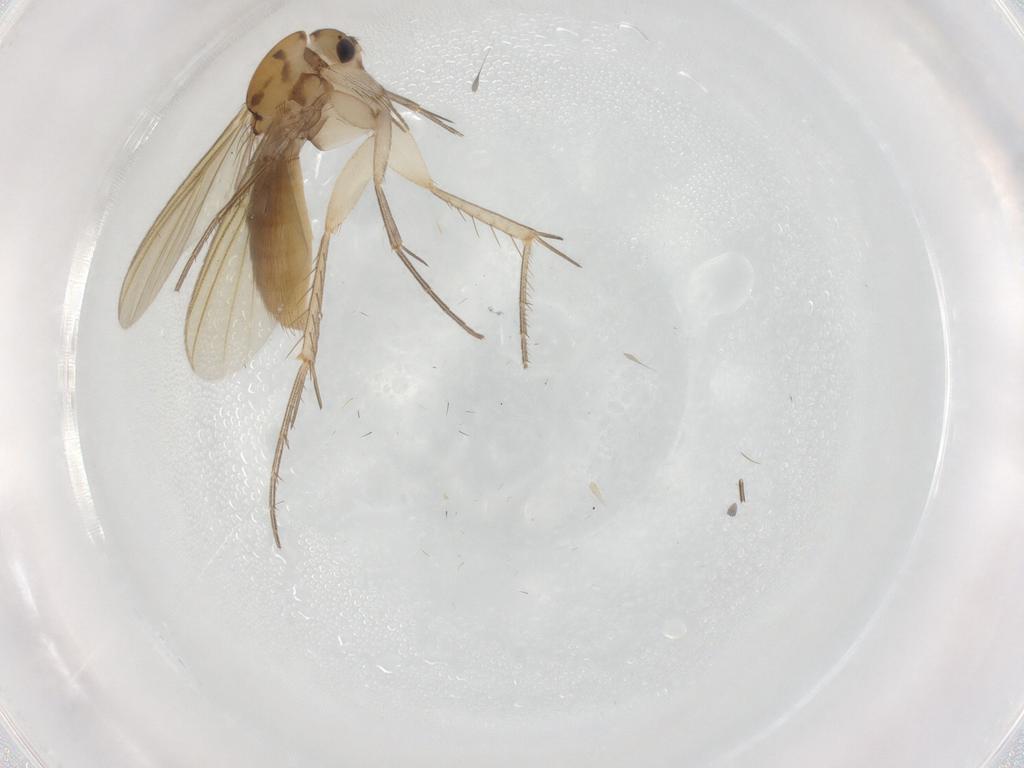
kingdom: Animalia
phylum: Arthropoda
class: Insecta
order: Diptera
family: Mycetophilidae
